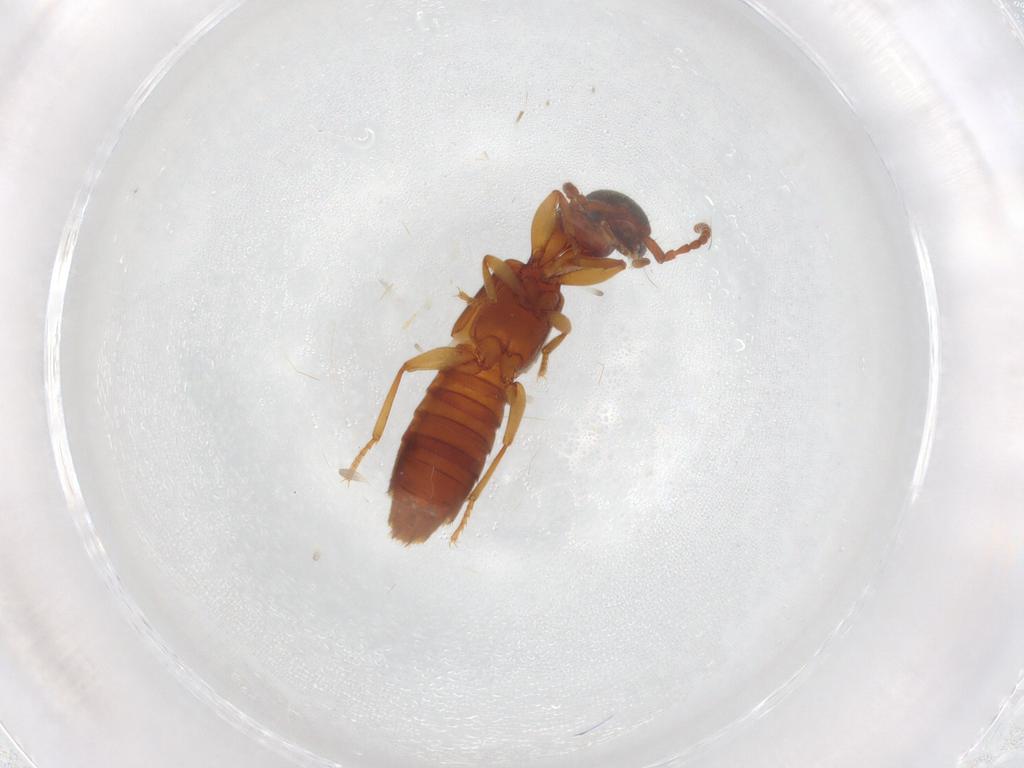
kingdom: Animalia
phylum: Arthropoda
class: Insecta
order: Coleoptera
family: Staphylinidae
